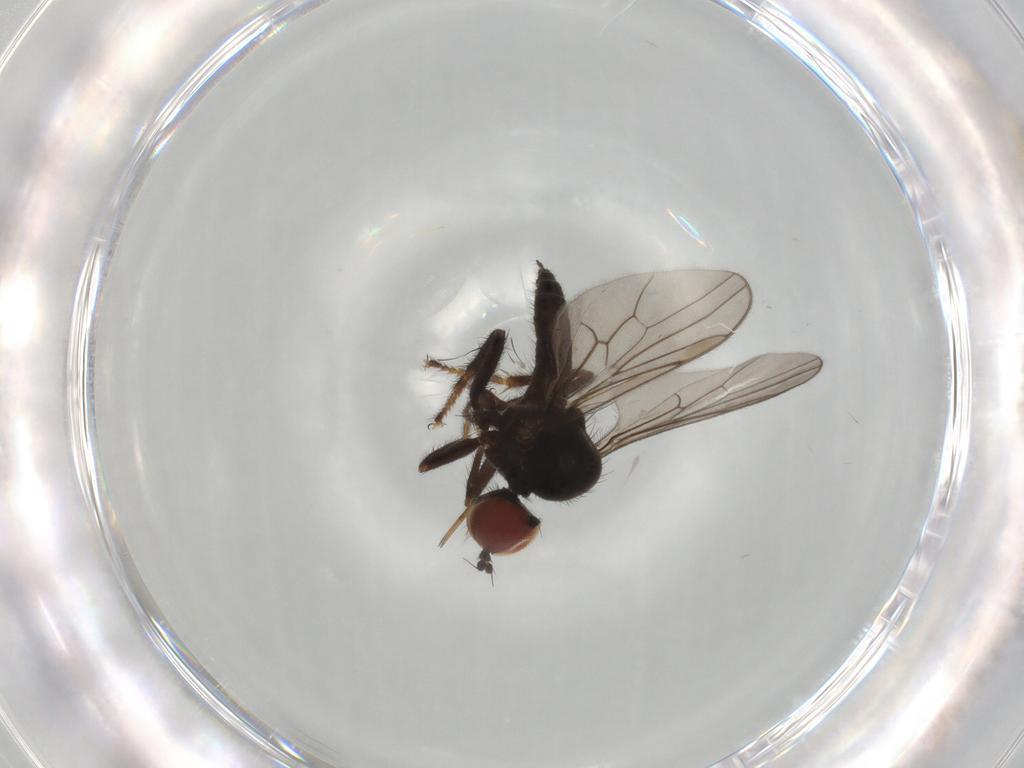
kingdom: Animalia
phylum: Arthropoda
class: Insecta
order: Diptera
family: Hybotidae
